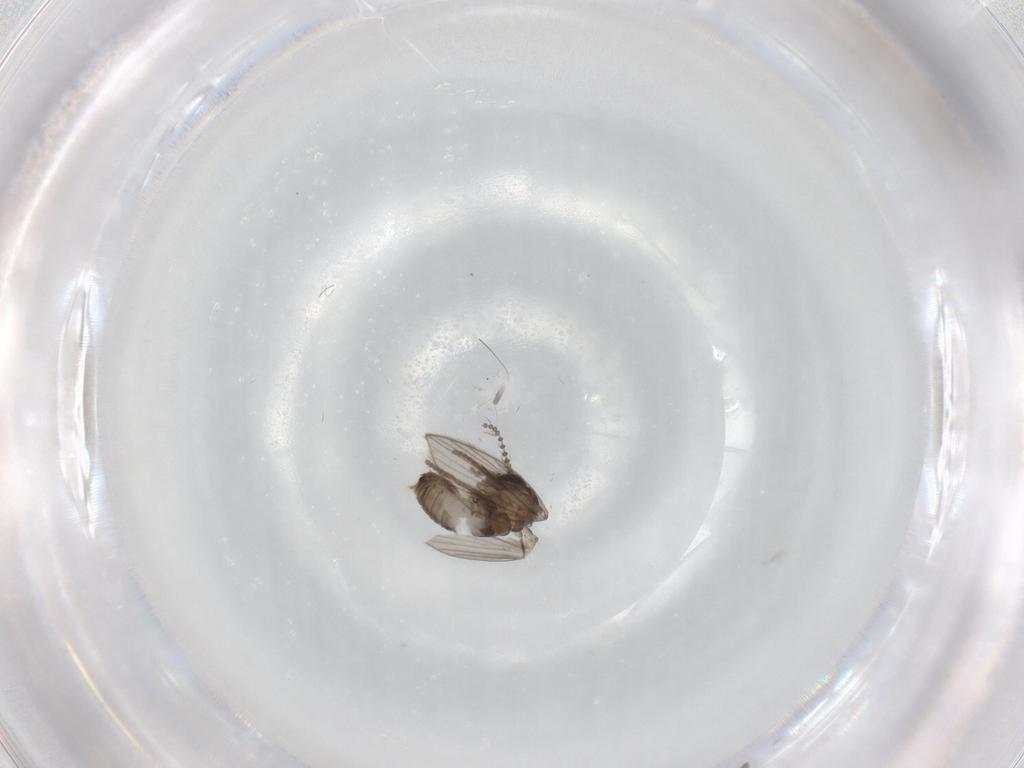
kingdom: Animalia
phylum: Arthropoda
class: Insecta
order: Diptera
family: Psychodidae
